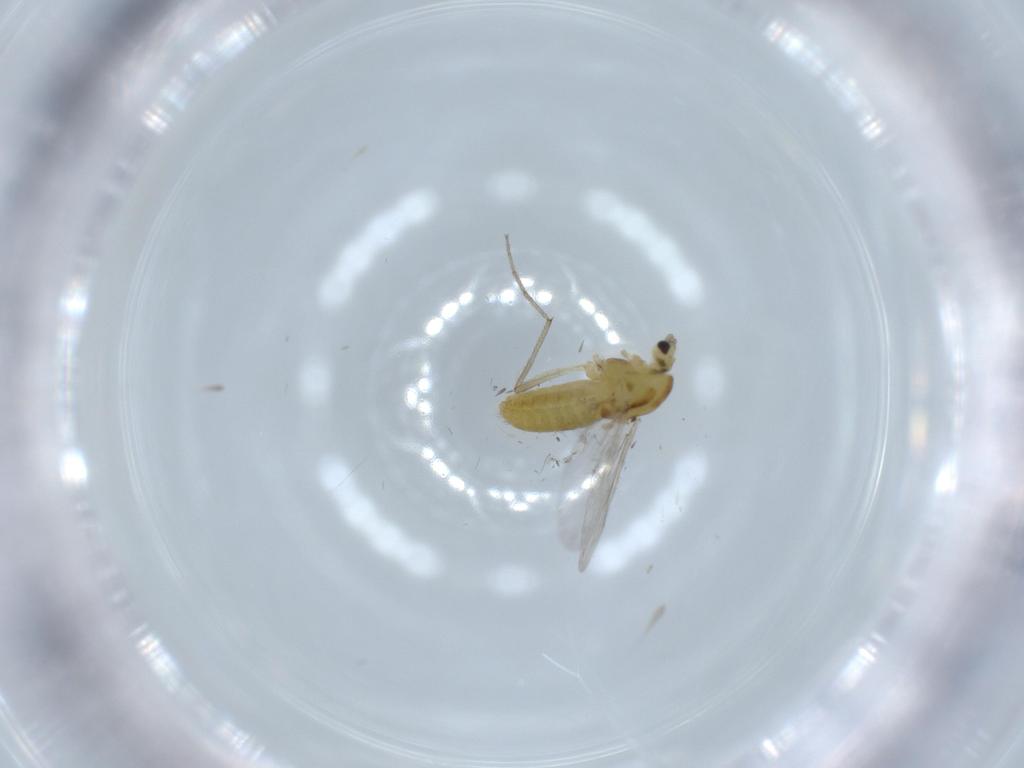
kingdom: Animalia
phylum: Arthropoda
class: Insecta
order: Diptera
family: Chironomidae
